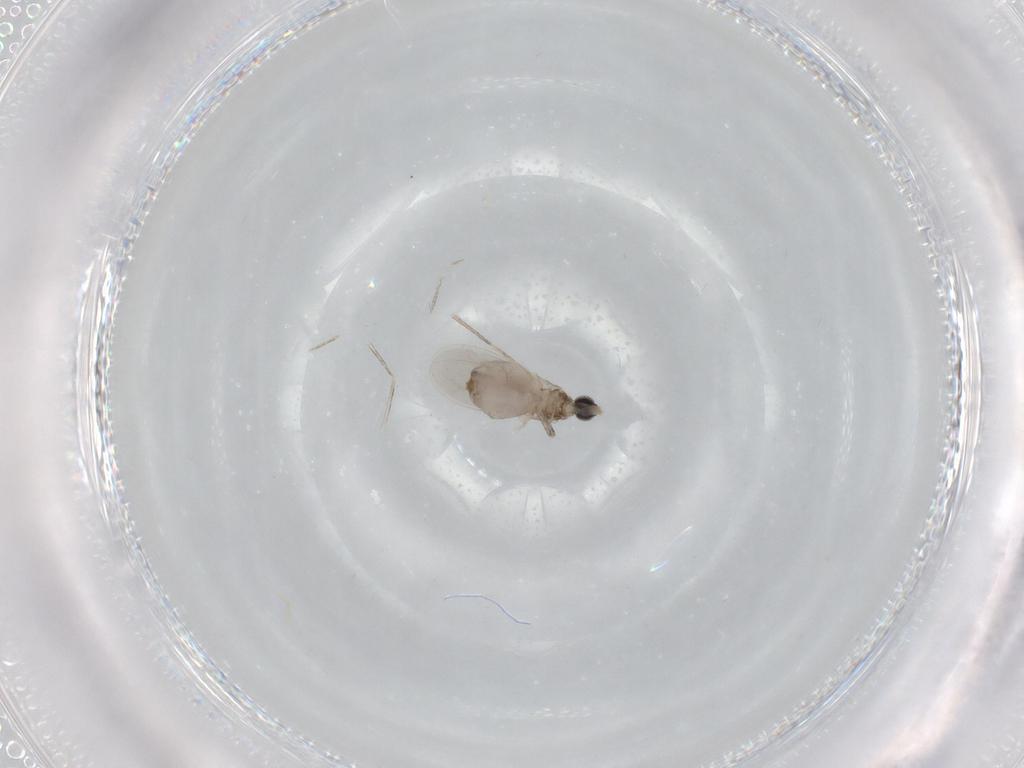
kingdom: Animalia
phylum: Arthropoda
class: Insecta
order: Diptera
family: Cecidomyiidae
